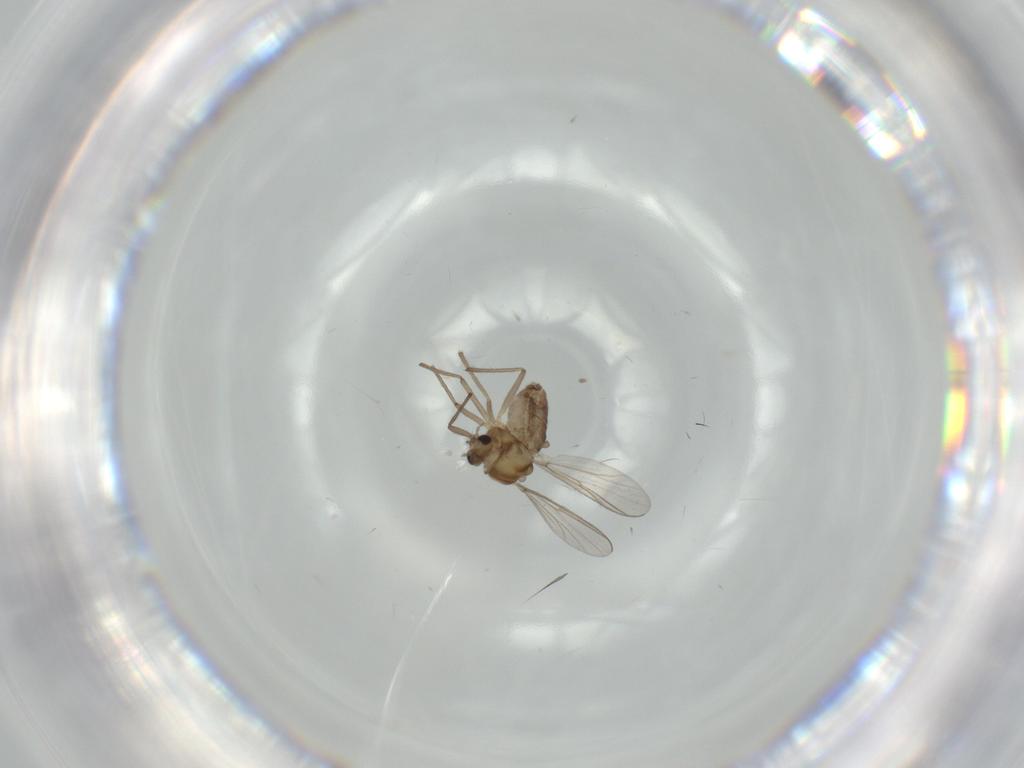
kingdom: Animalia
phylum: Arthropoda
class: Insecta
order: Diptera
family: Chironomidae
